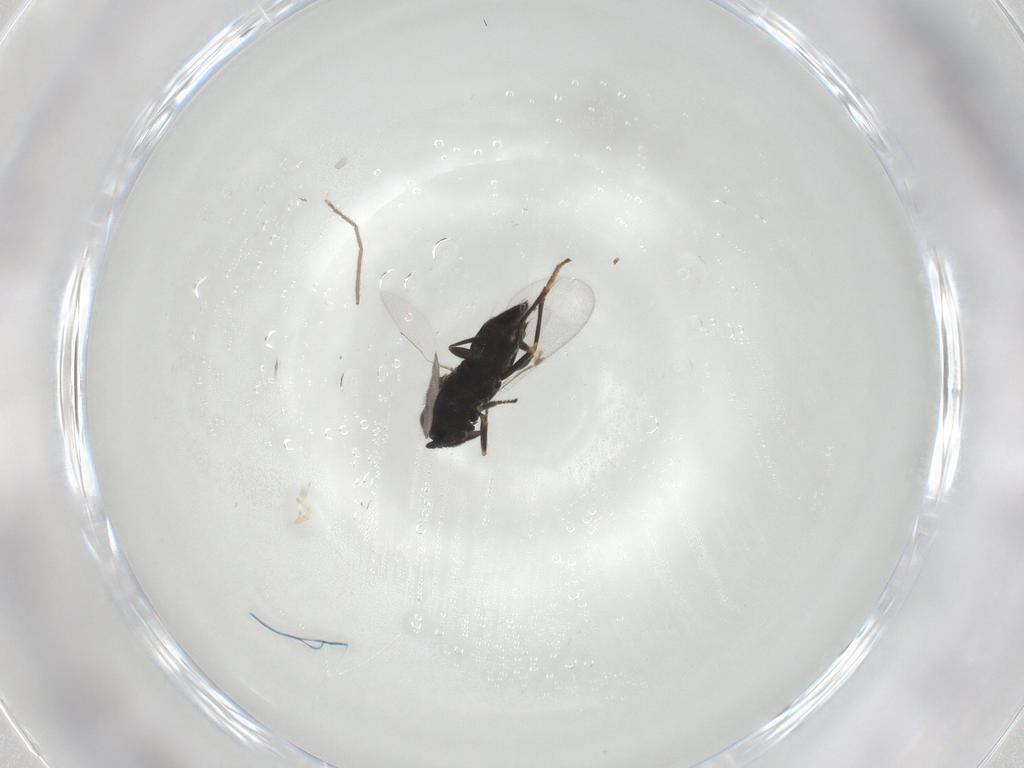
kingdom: Animalia
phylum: Arthropoda
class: Insecta
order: Hymenoptera
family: Encyrtidae
